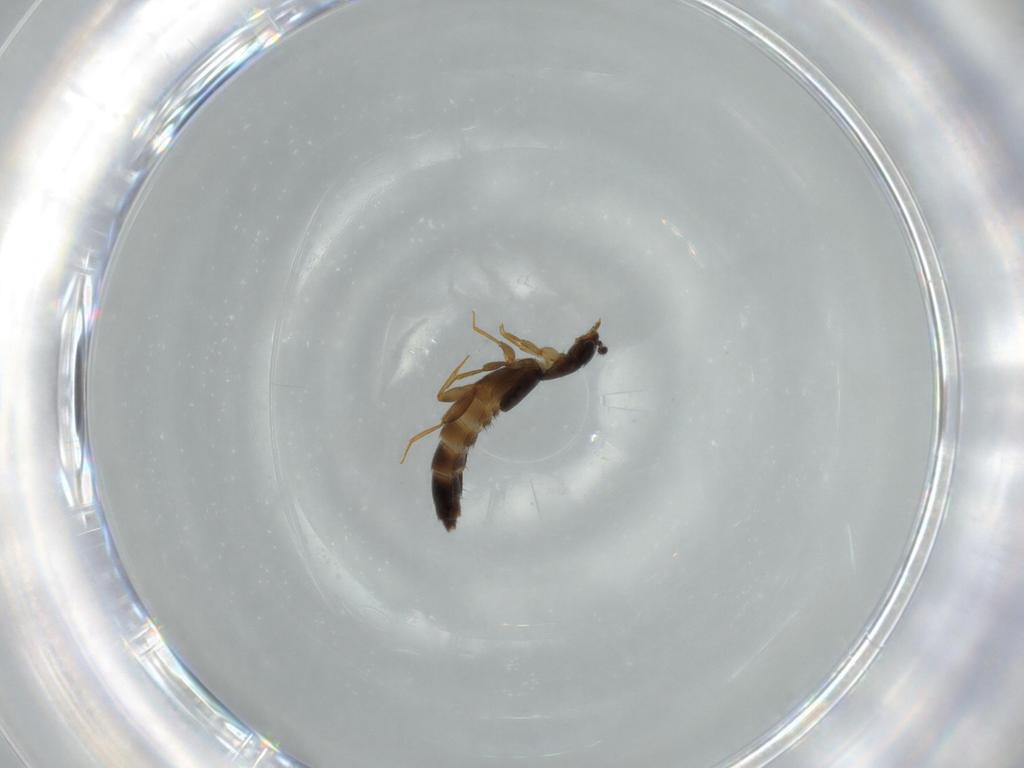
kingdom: Animalia
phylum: Arthropoda
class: Insecta
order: Coleoptera
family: Staphylinidae
